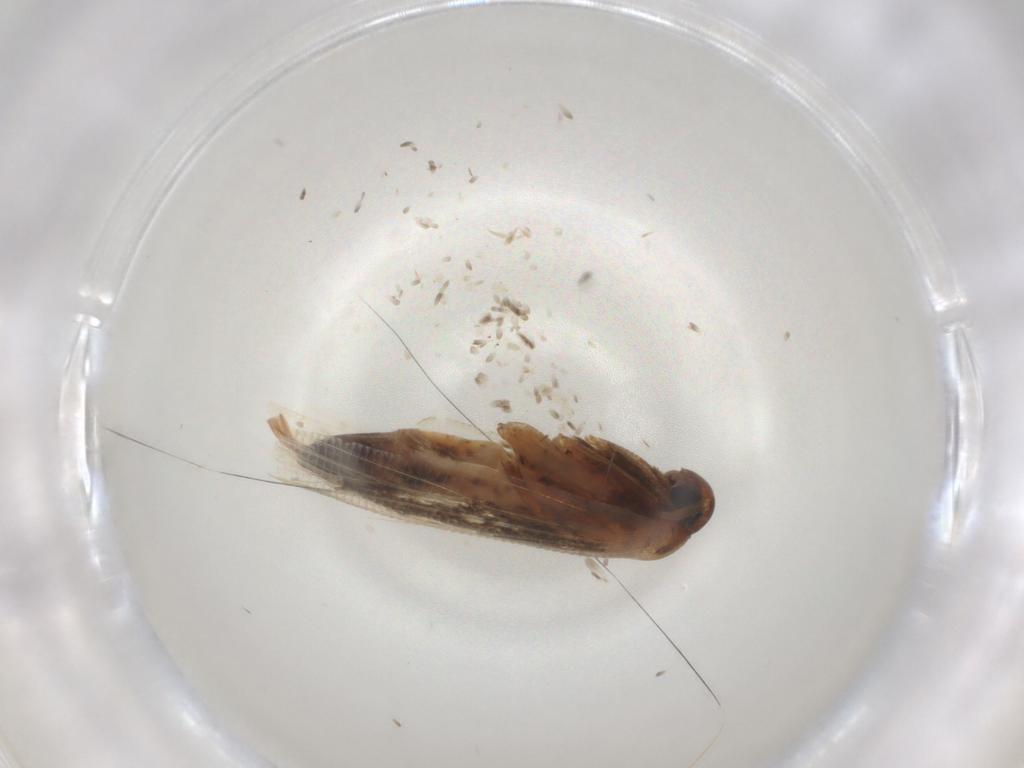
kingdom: Animalia
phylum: Arthropoda
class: Insecta
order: Lepidoptera
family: Cosmopterigidae
